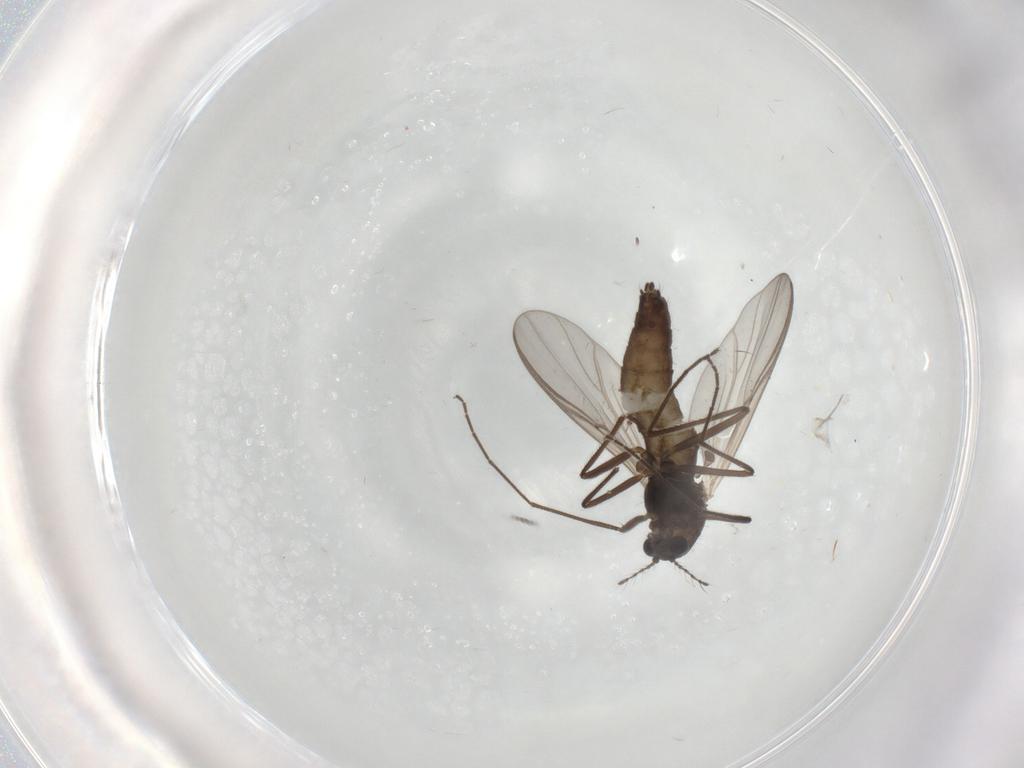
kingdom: Animalia
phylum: Arthropoda
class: Insecta
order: Diptera
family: Chironomidae
